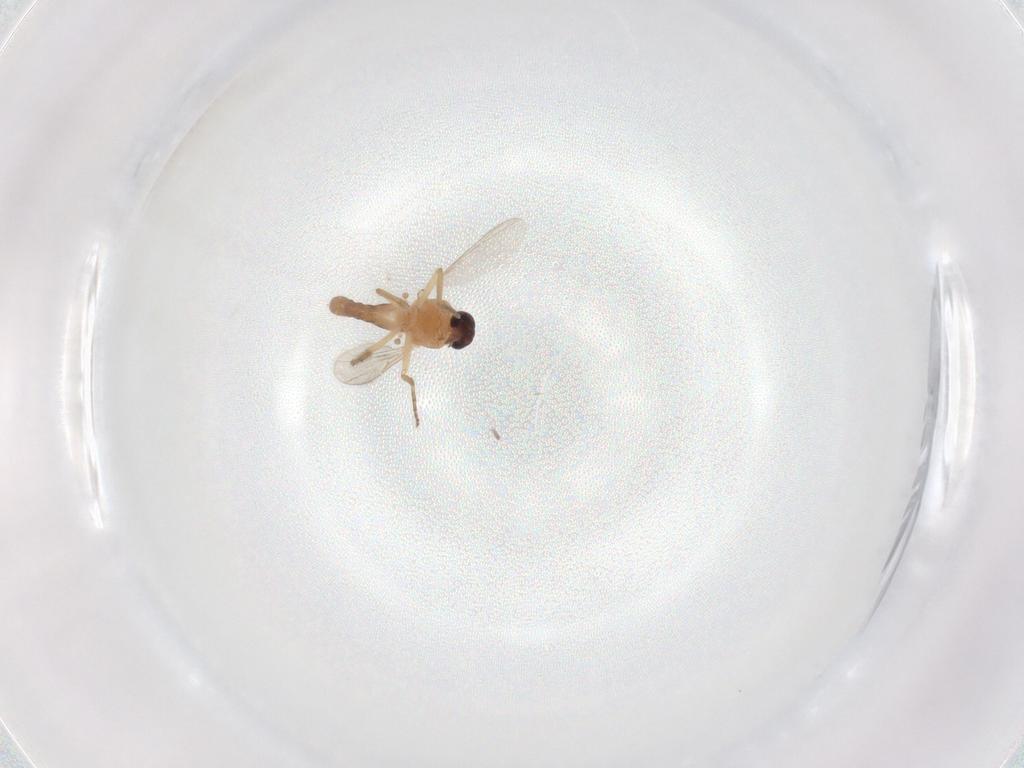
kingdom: Animalia
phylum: Arthropoda
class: Insecta
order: Diptera
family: Ceratopogonidae
